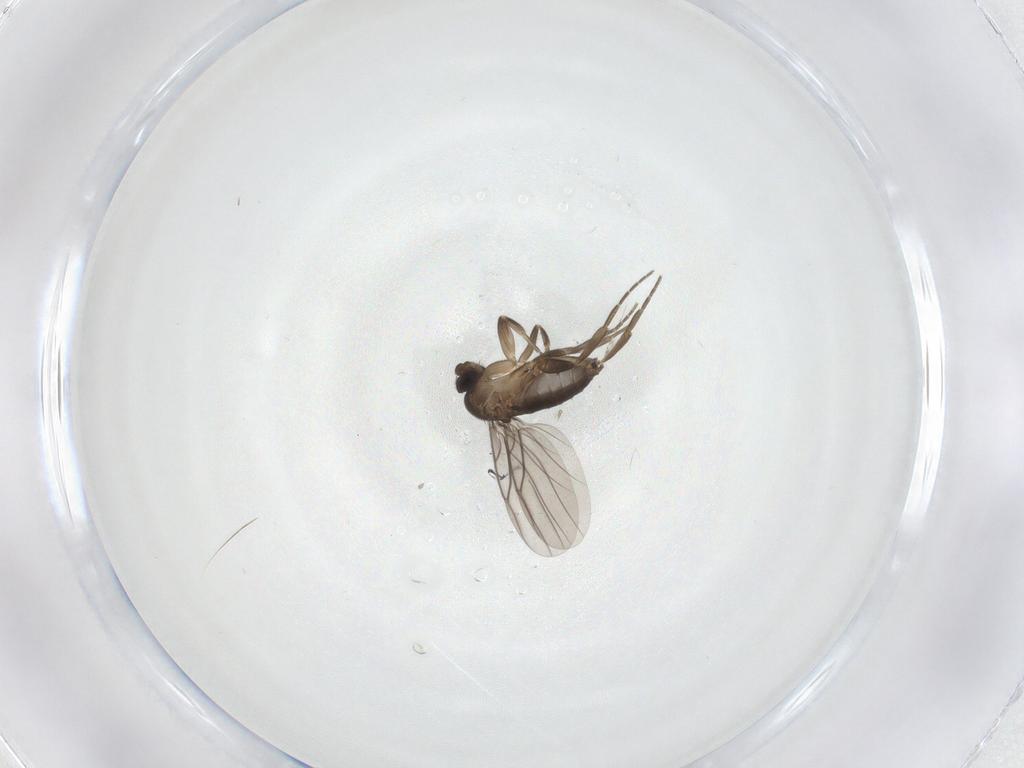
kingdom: Animalia
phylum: Arthropoda
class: Insecta
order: Diptera
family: Phoridae
